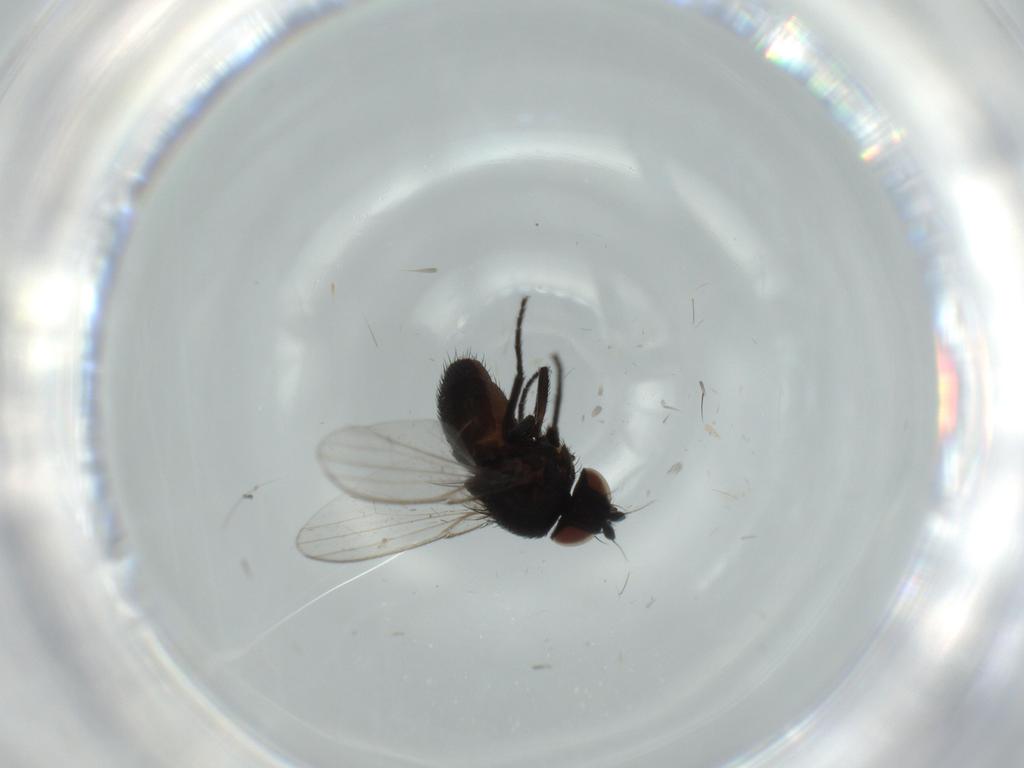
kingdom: Animalia
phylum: Arthropoda
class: Insecta
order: Diptera
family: Milichiidae
